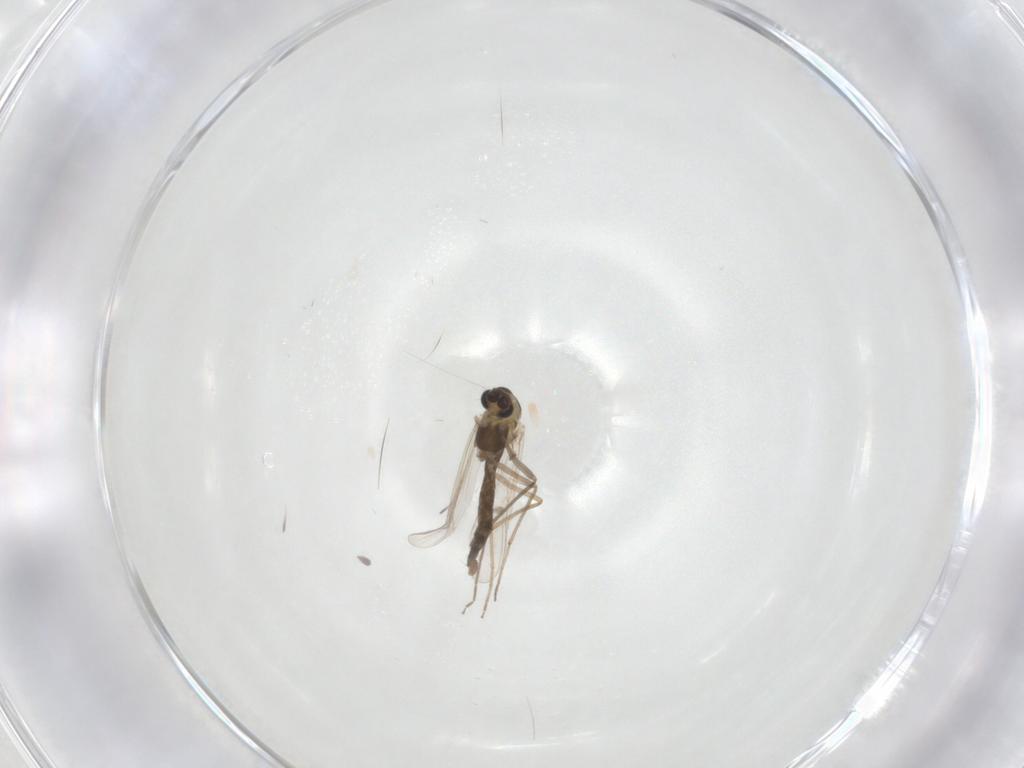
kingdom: Animalia
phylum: Arthropoda
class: Insecta
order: Diptera
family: Chironomidae
